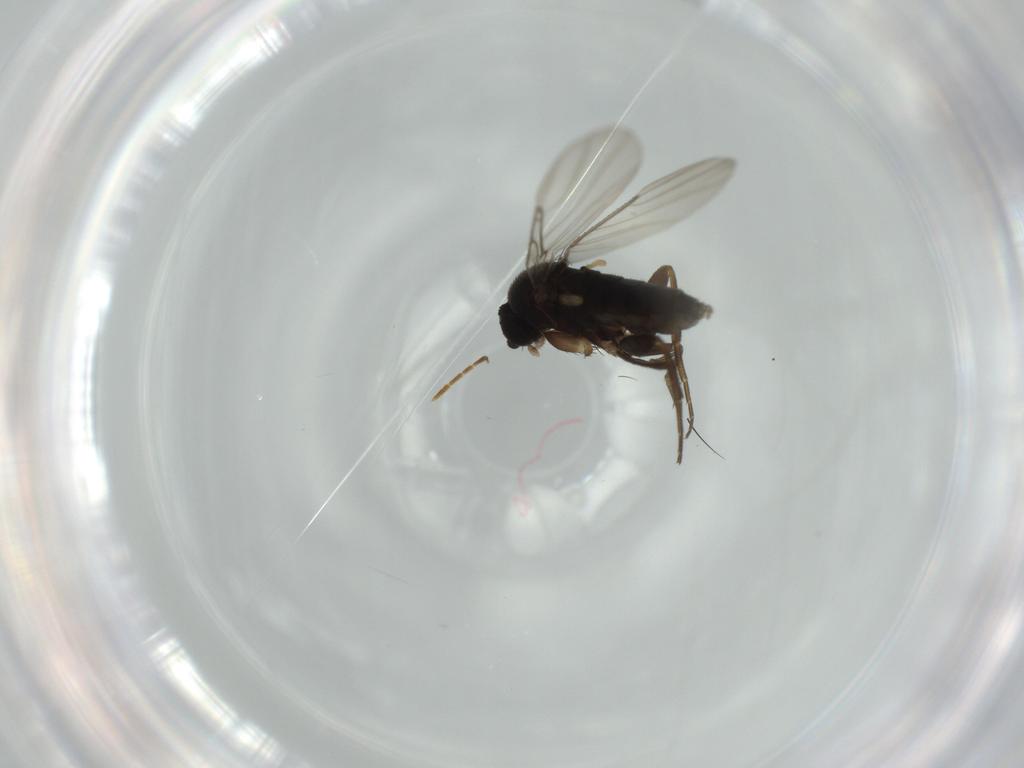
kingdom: Animalia
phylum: Arthropoda
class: Insecta
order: Diptera
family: Phoridae
